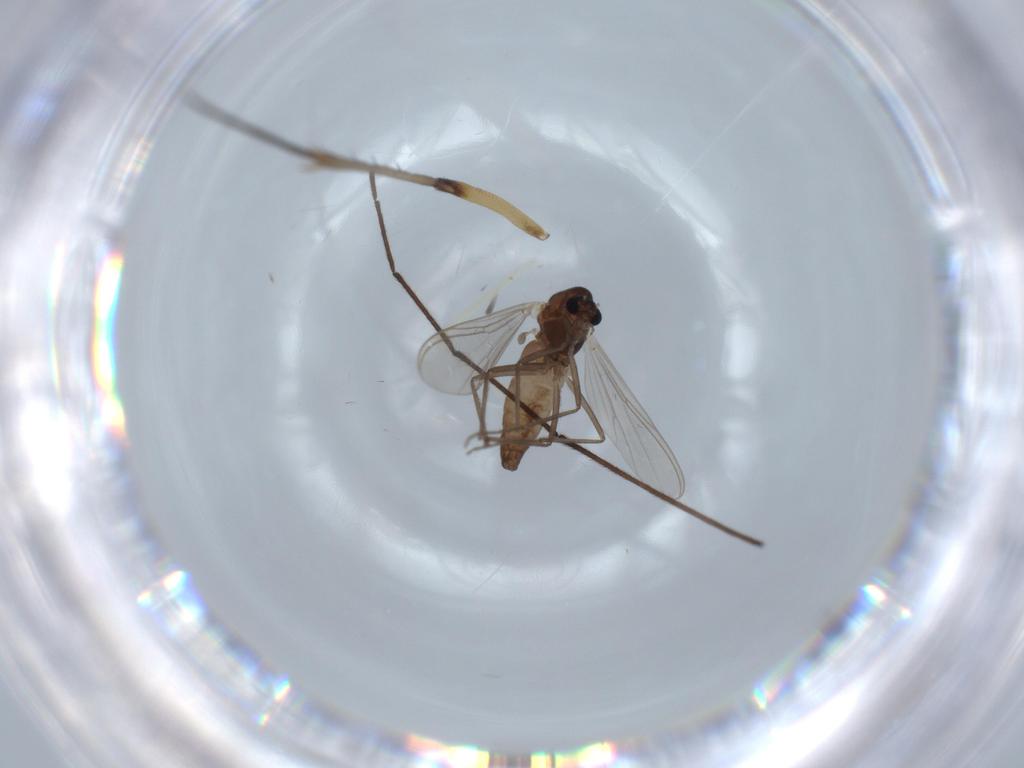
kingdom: Animalia
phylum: Arthropoda
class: Insecta
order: Diptera
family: Chironomidae
